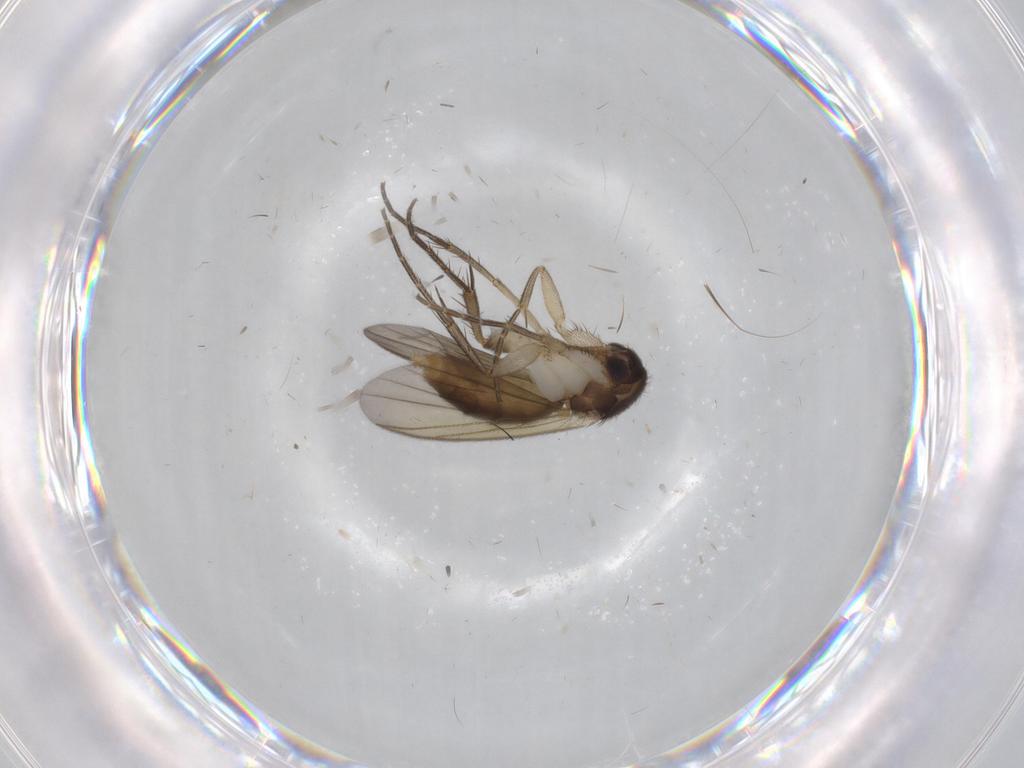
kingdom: Animalia
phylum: Arthropoda
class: Insecta
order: Diptera
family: Mycetophilidae
